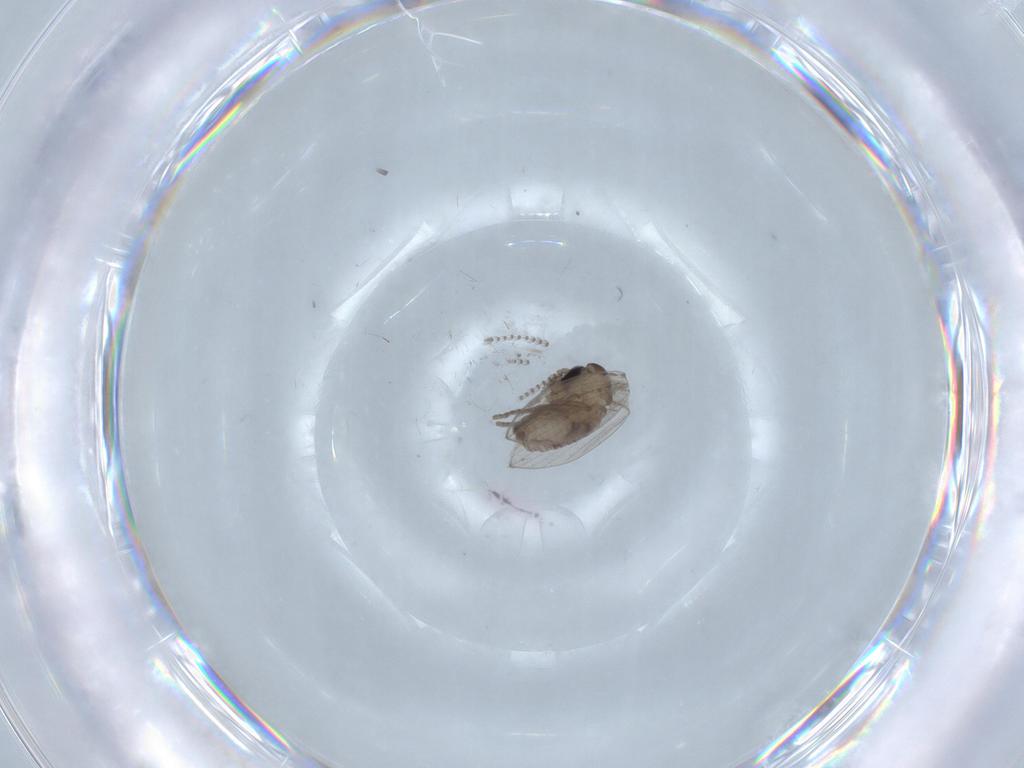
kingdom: Animalia
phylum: Arthropoda
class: Insecta
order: Diptera
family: Psychodidae
